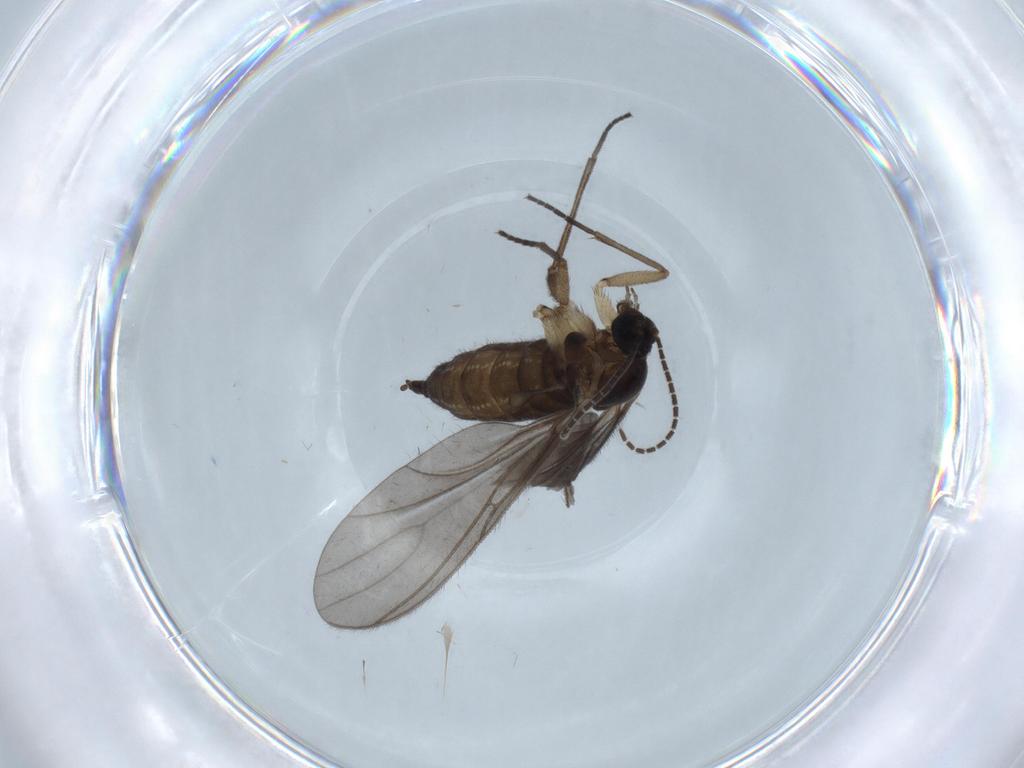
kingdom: Animalia
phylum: Arthropoda
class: Insecta
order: Diptera
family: Sciaridae
